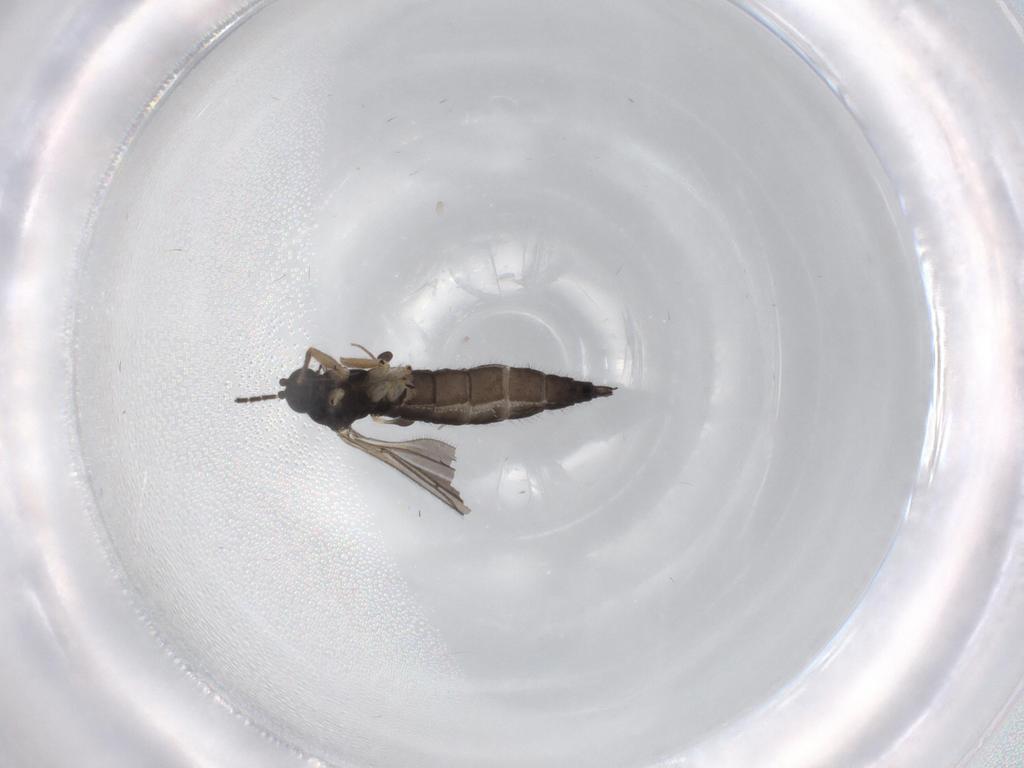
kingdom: Animalia
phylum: Arthropoda
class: Insecta
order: Diptera
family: Sciaridae
